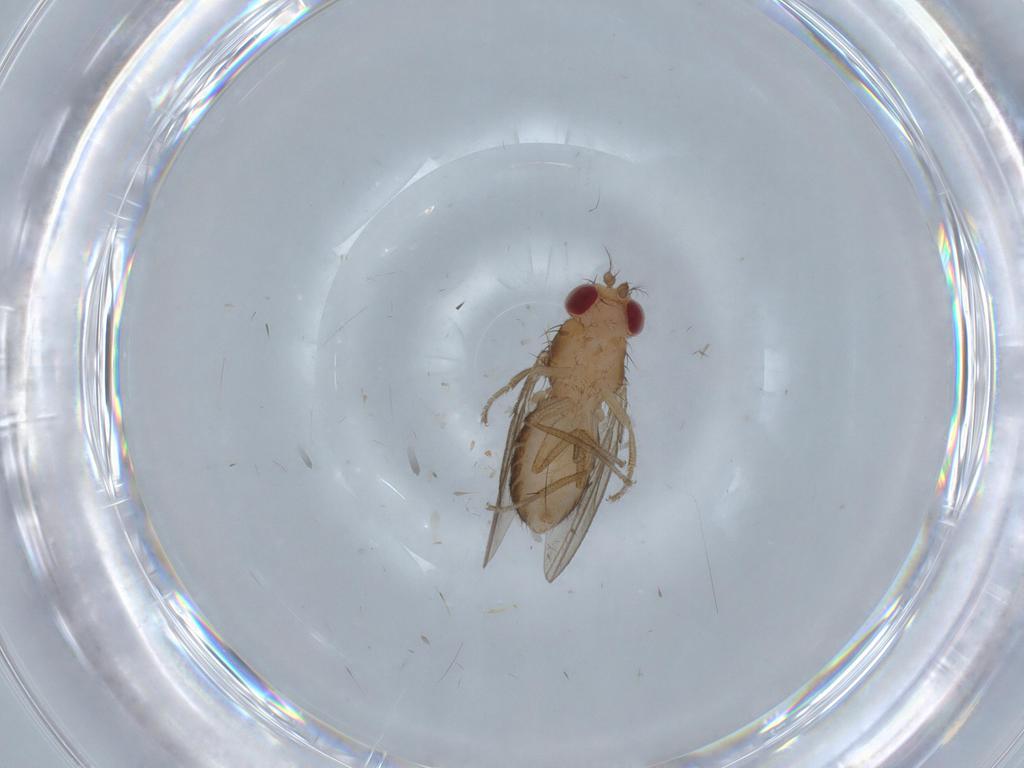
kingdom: Animalia
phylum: Arthropoda
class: Insecta
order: Diptera
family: Drosophilidae
